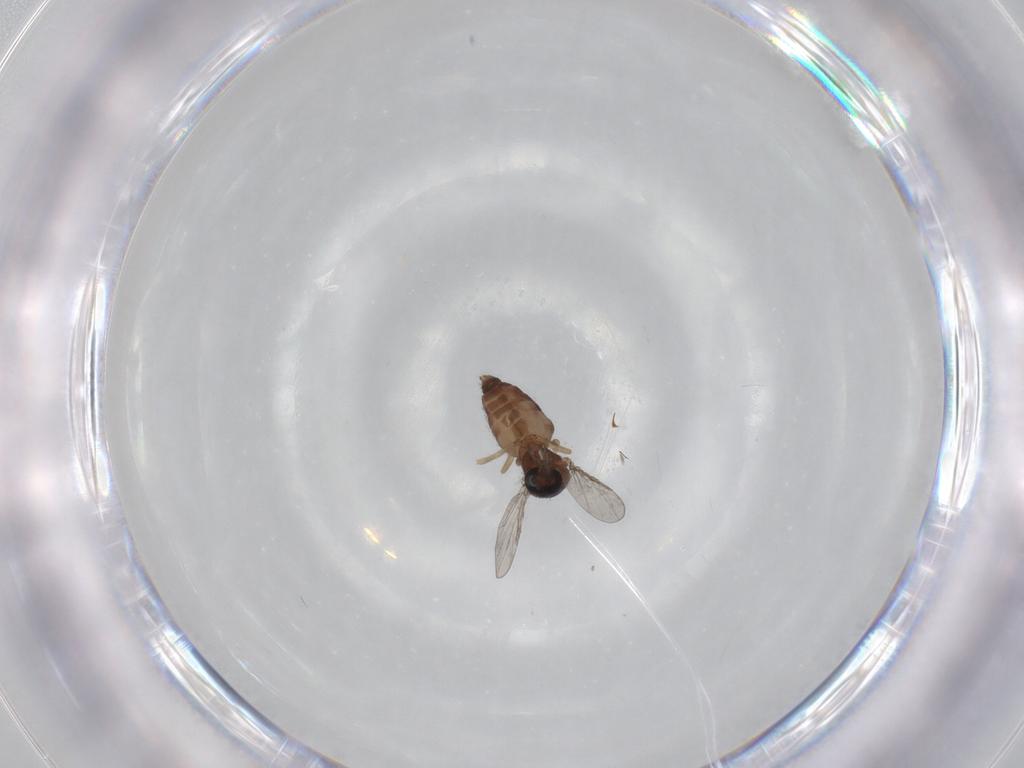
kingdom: Animalia
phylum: Arthropoda
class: Insecta
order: Diptera
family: Ceratopogonidae
